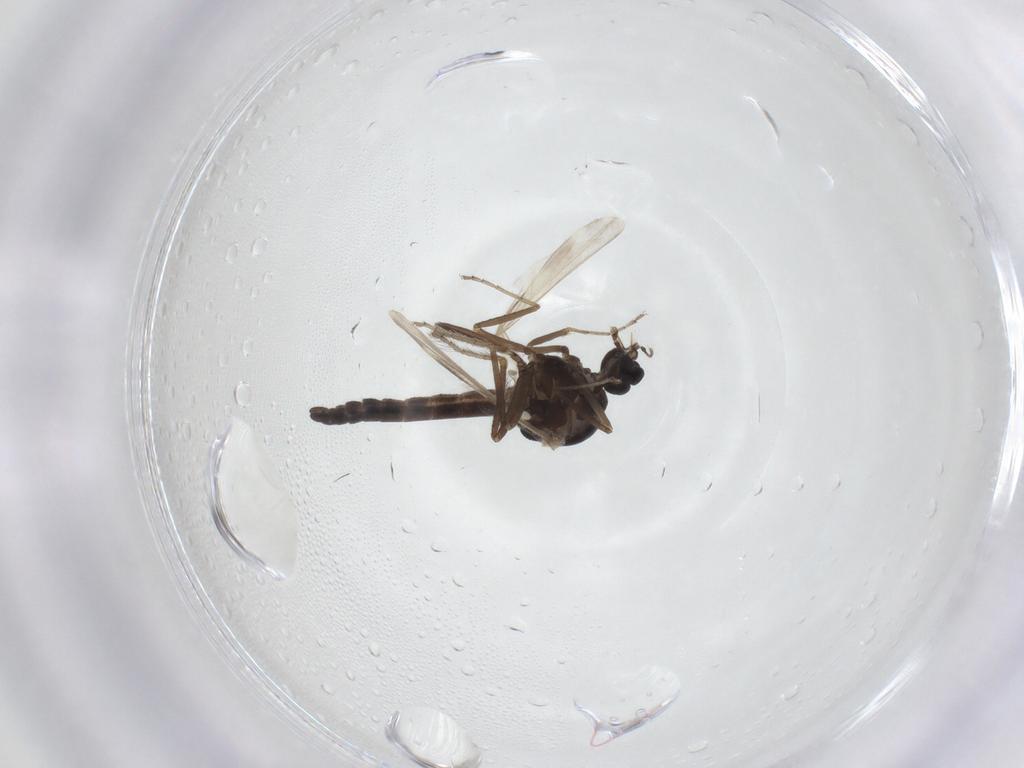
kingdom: Animalia
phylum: Arthropoda
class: Insecta
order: Diptera
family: Ceratopogonidae
